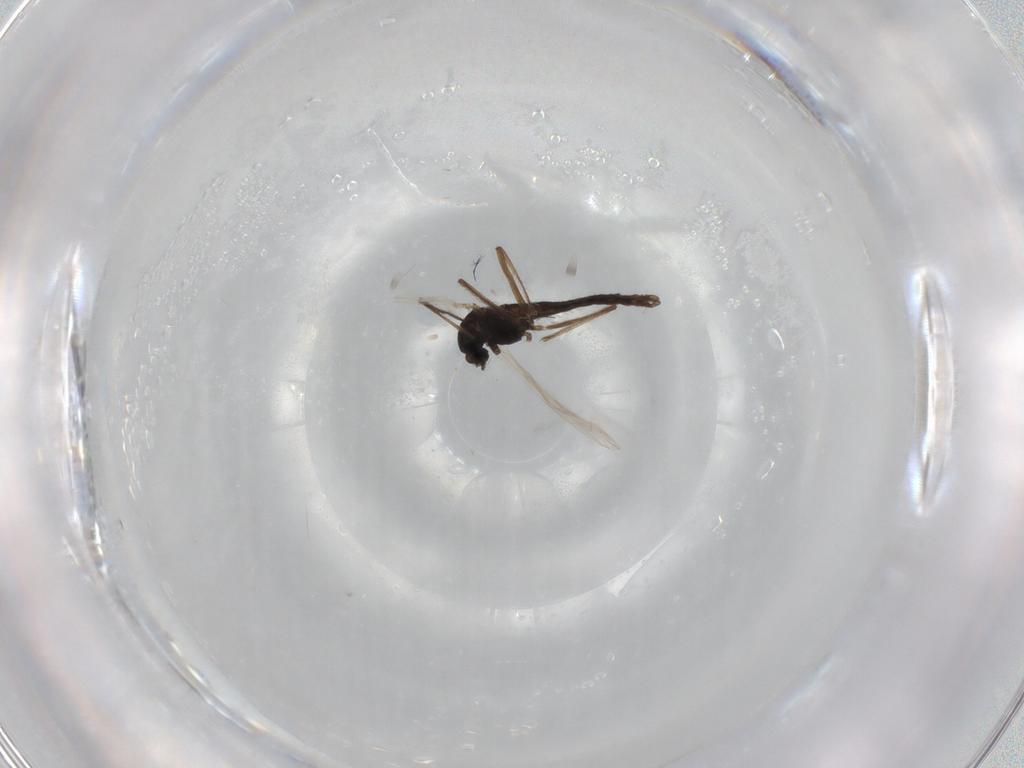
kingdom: Animalia
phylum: Arthropoda
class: Insecta
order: Diptera
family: Chironomidae
